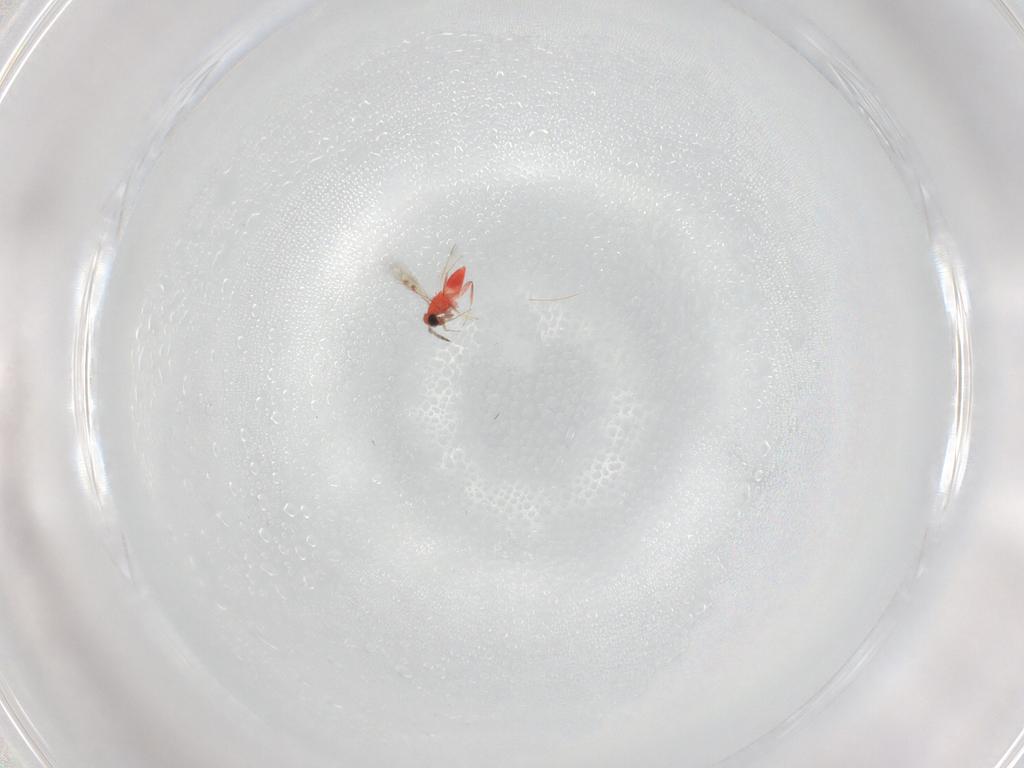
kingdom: Animalia
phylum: Arthropoda
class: Insecta
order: Hymenoptera
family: Trichogrammatidae
